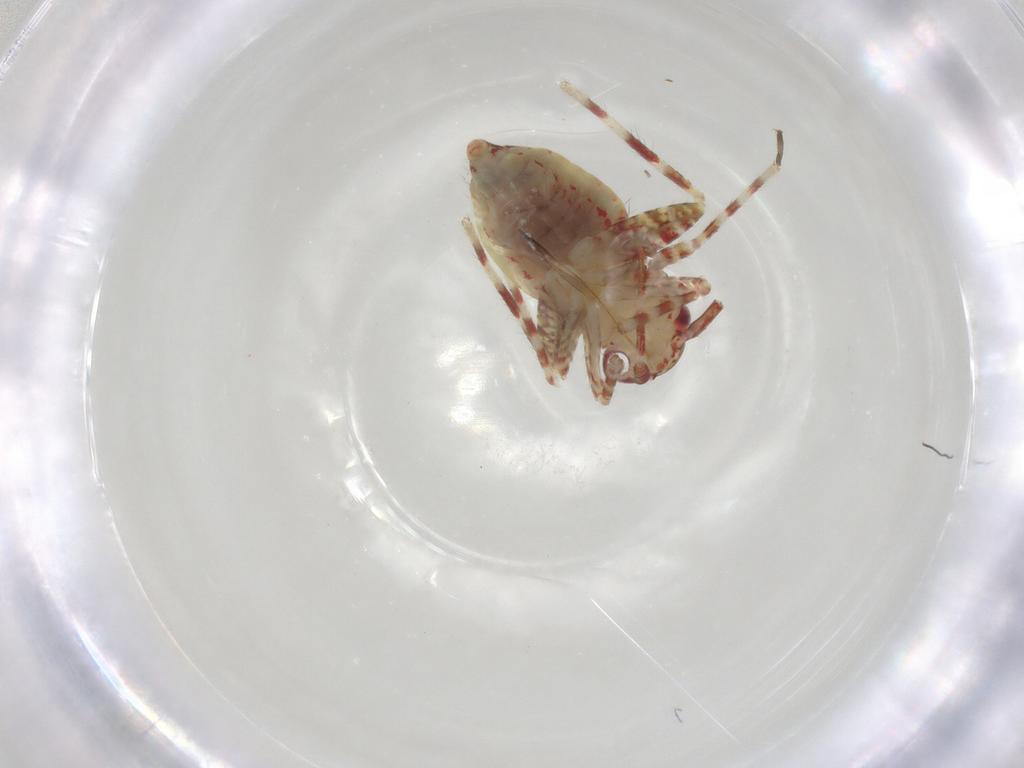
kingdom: Animalia
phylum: Arthropoda
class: Insecta
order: Hemiptera
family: Miridae
